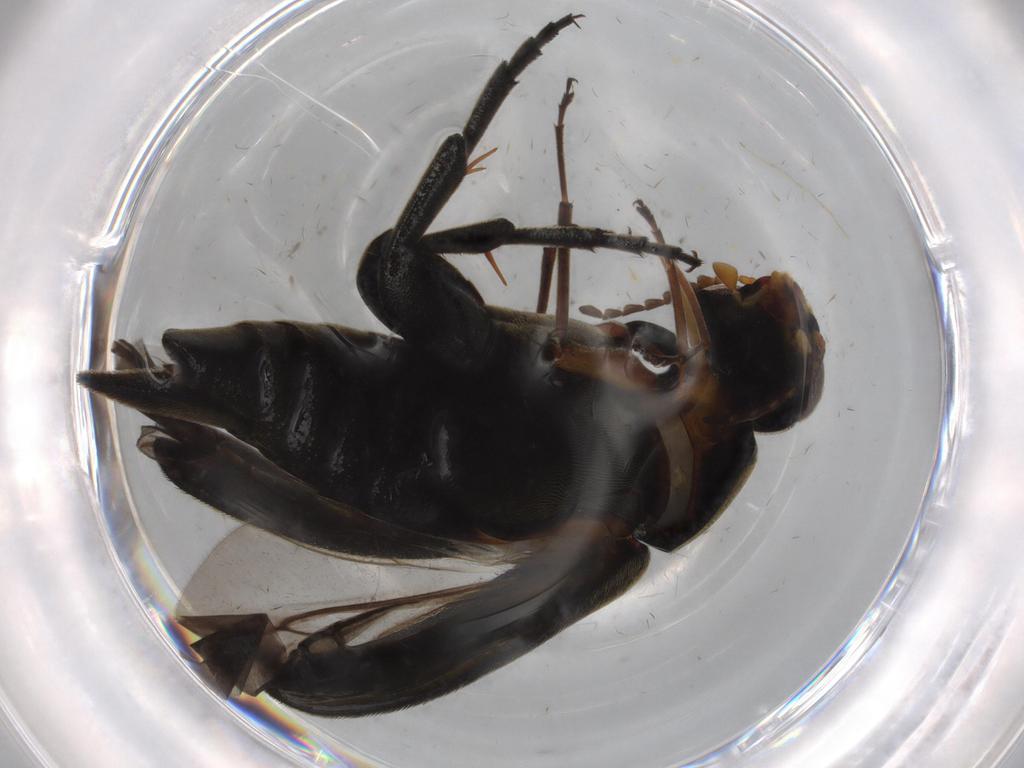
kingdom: Animalia
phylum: Arthropoda
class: Insecta
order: Coleoptera
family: Mordellidae
